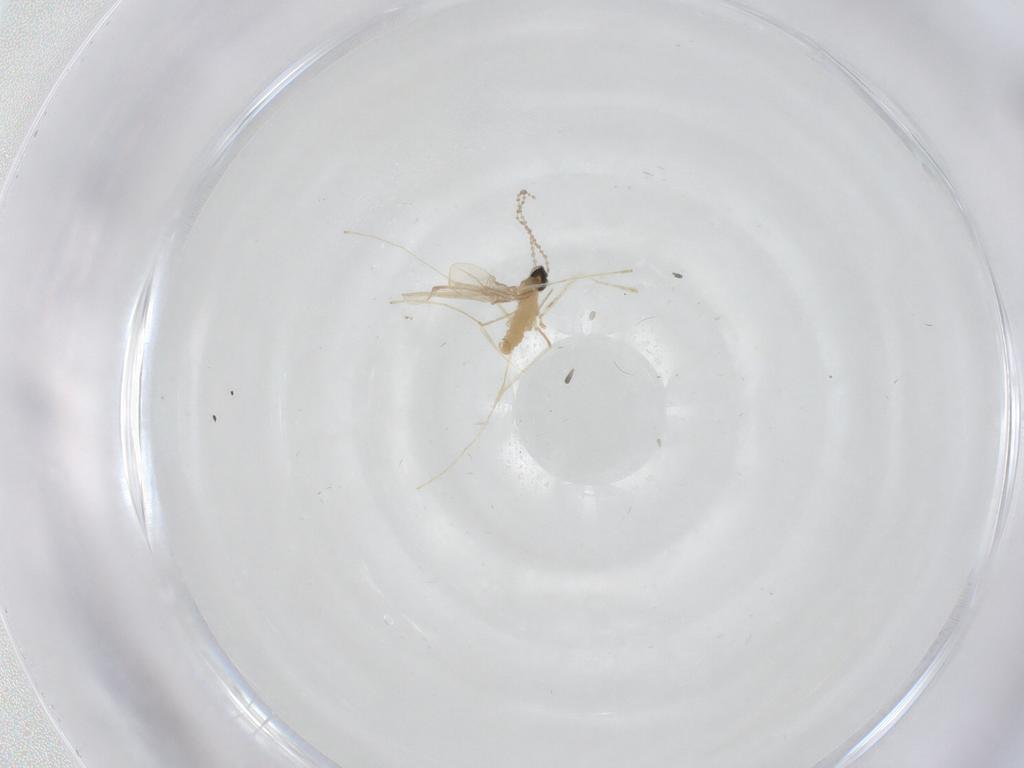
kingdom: Animalia
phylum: Arthropoda
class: Insecta
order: Diptera
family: Cecidomyiidae
